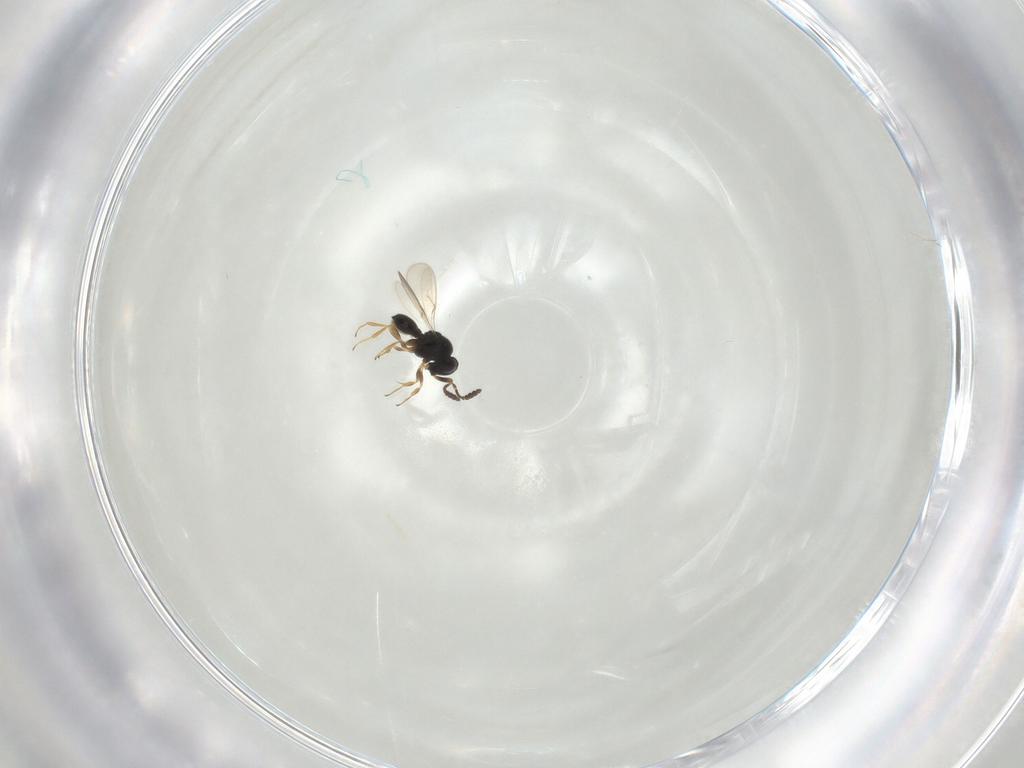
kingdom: Animalia
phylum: Arthropoda
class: Insecta
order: Hymenoptera
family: Scelionidae
